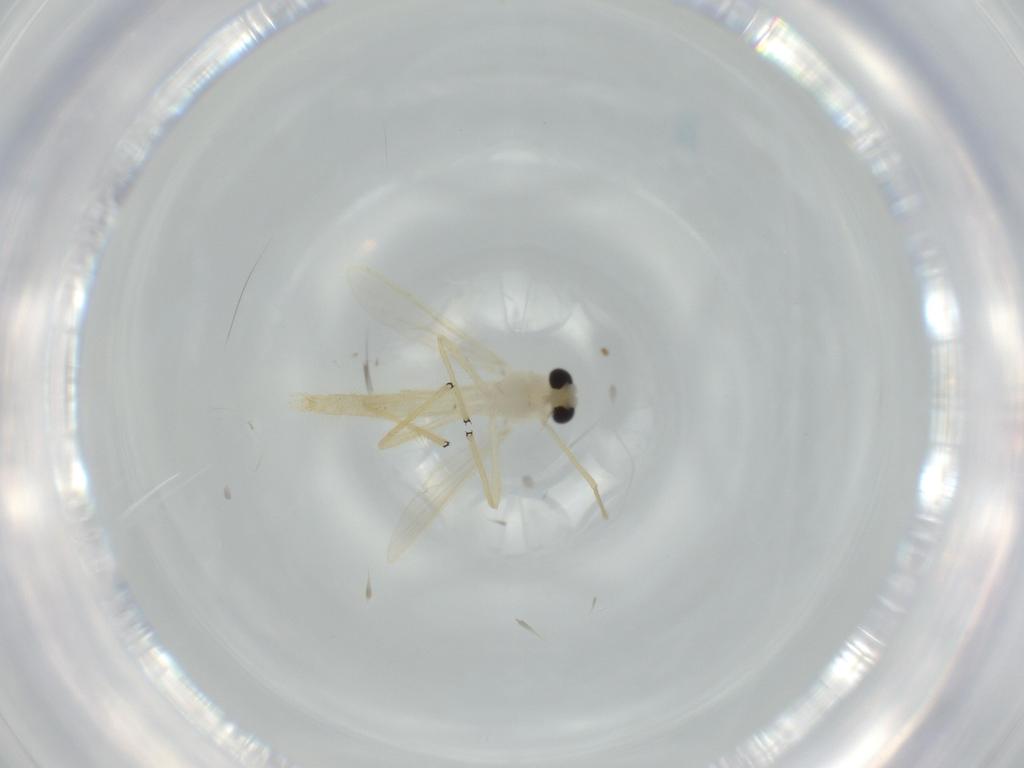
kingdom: Animalia
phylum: Arthropoda
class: Insecta
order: Diptera
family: Chironomidae
